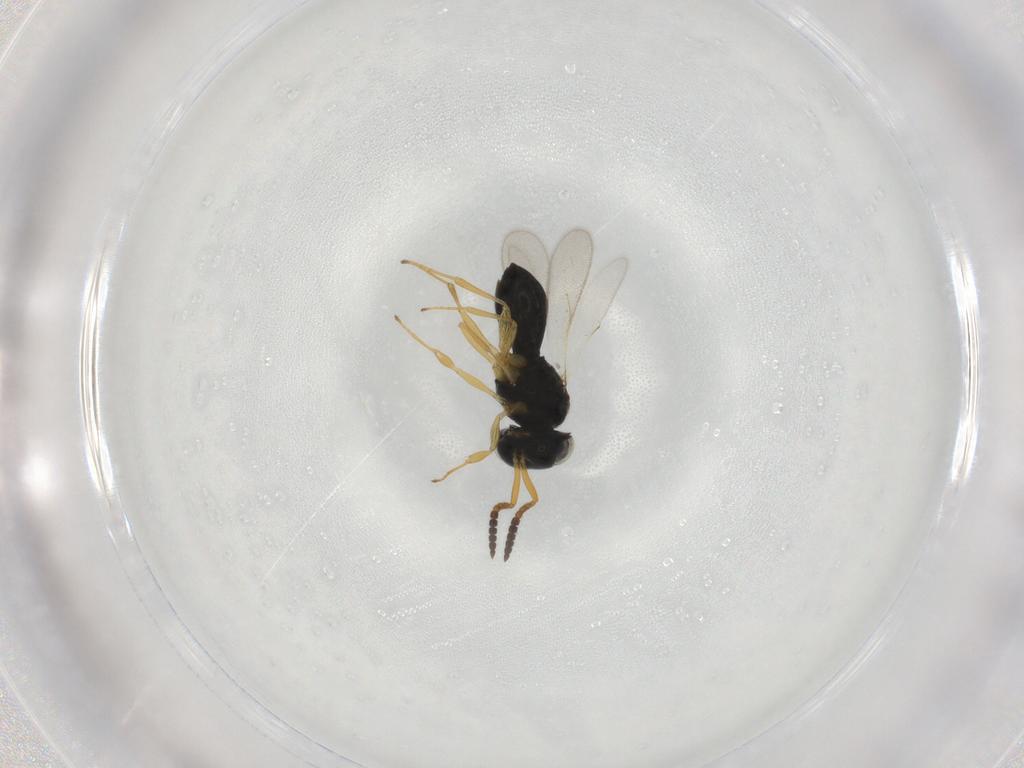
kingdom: Animalia
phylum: Arthropoda
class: Insecta
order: Hymenoptera
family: Scelionidae
